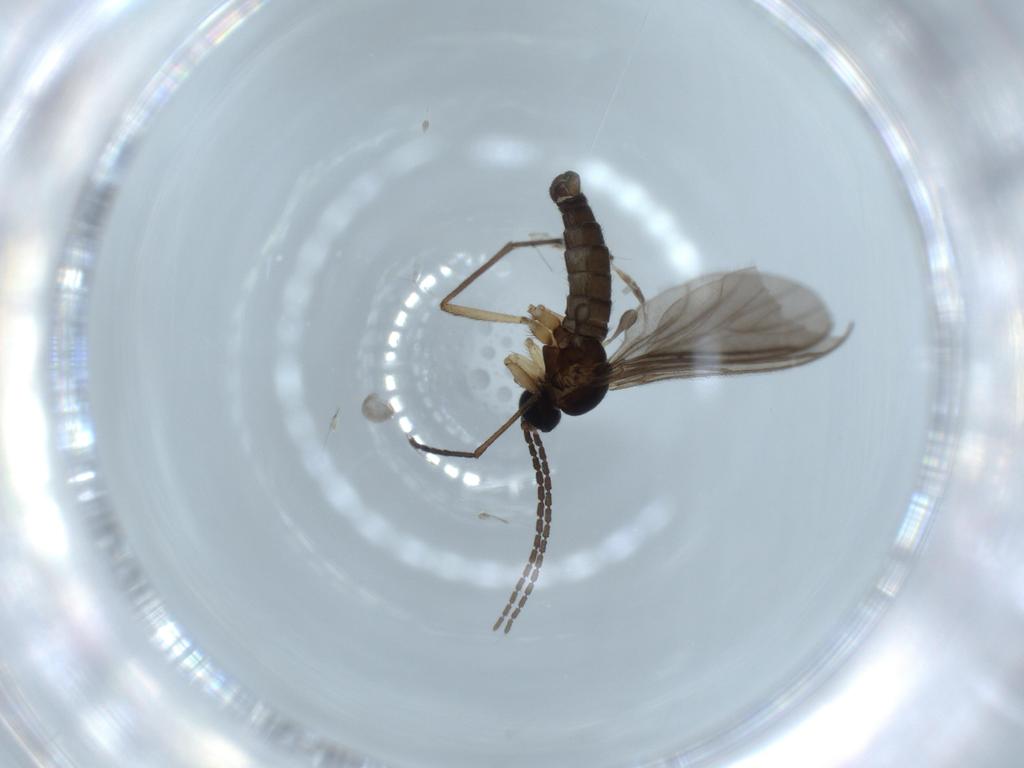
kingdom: Animalia
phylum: Arthropoda
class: Insecta
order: Diptera
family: Sciaridae
